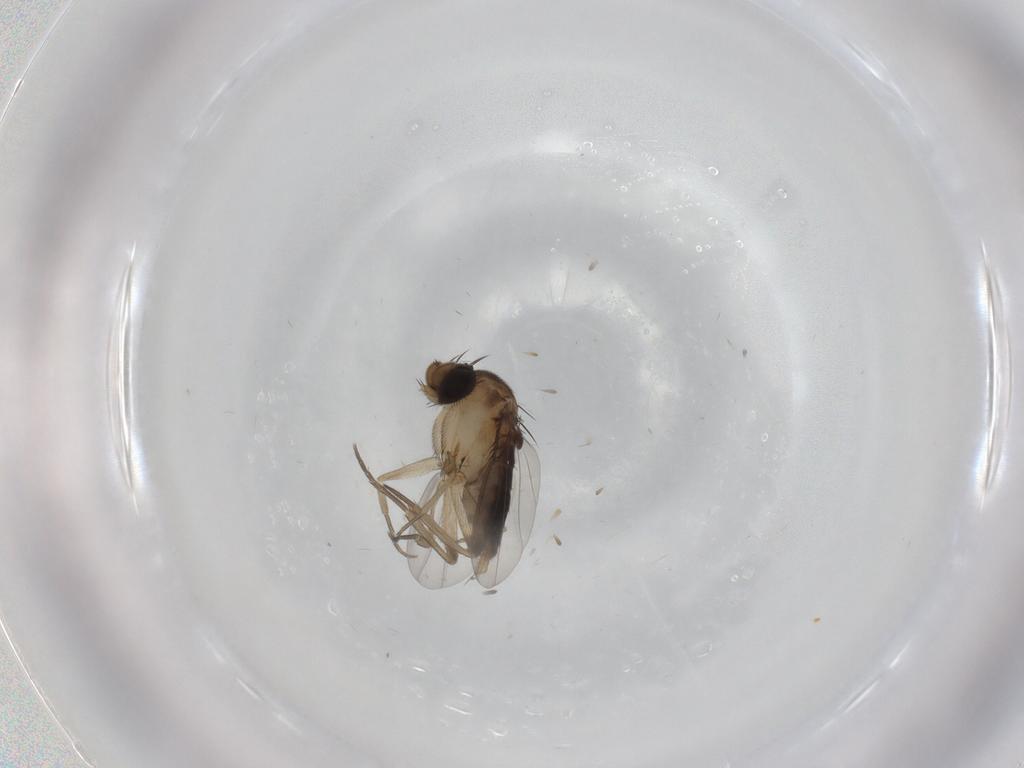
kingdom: Animalia
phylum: Arthropoda
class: Insecta
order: Diptera
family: Phoridae
